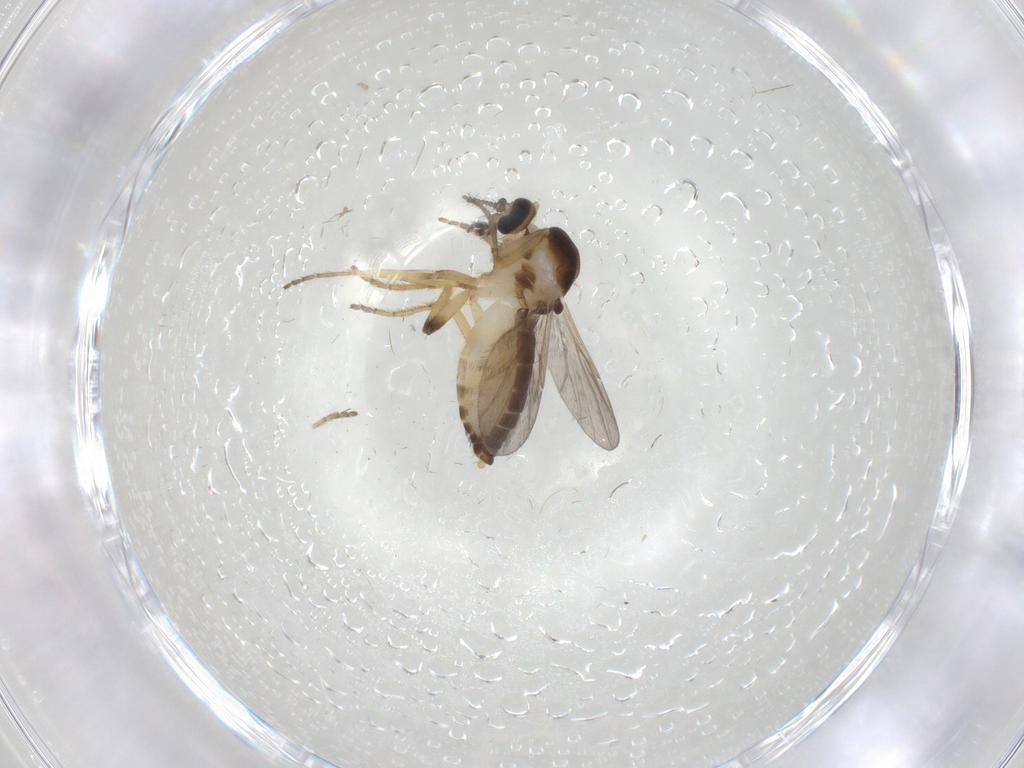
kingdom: Animalia
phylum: Arthropoda
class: Insecta
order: Diptera
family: Ceratopogonidae
